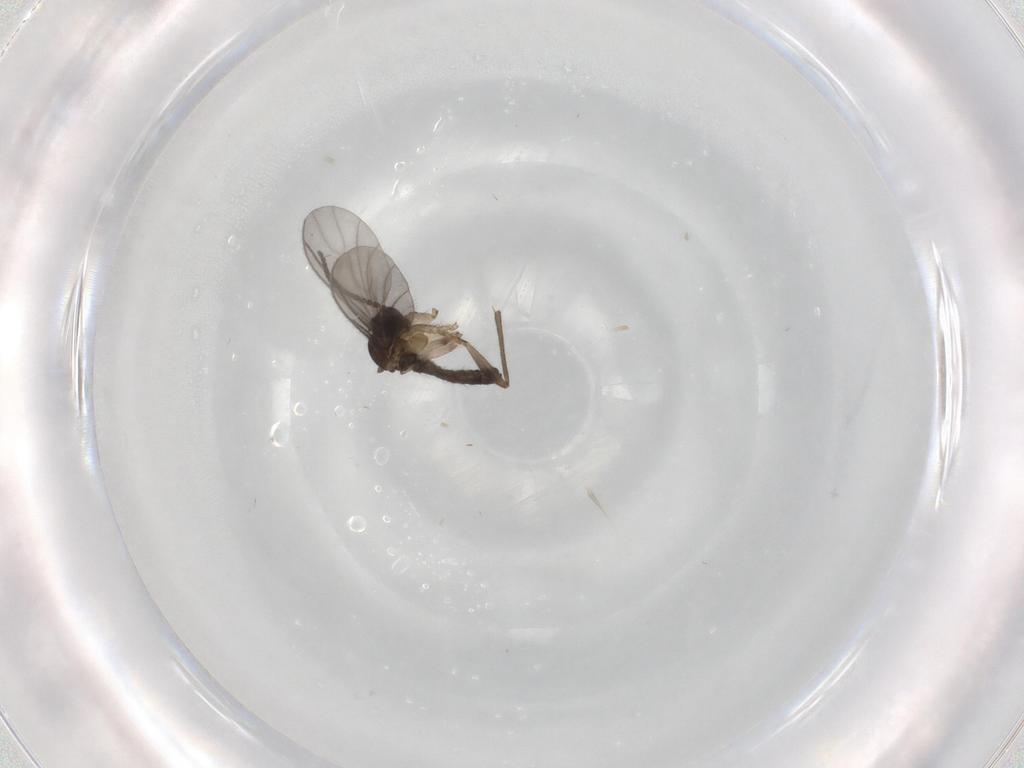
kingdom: Animalia
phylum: Arthropoda
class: Insecta
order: Diptera
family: Sciaridae
